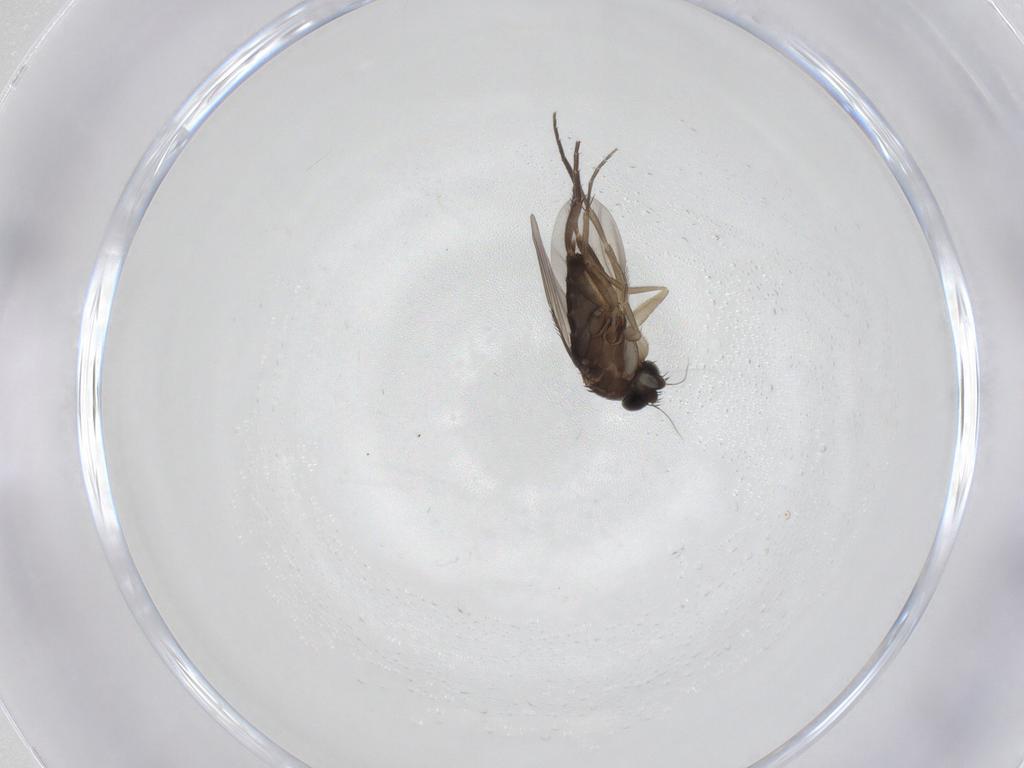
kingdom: Animalia
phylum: Arthropoda
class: Insecta
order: Diptera
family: Phoridae
